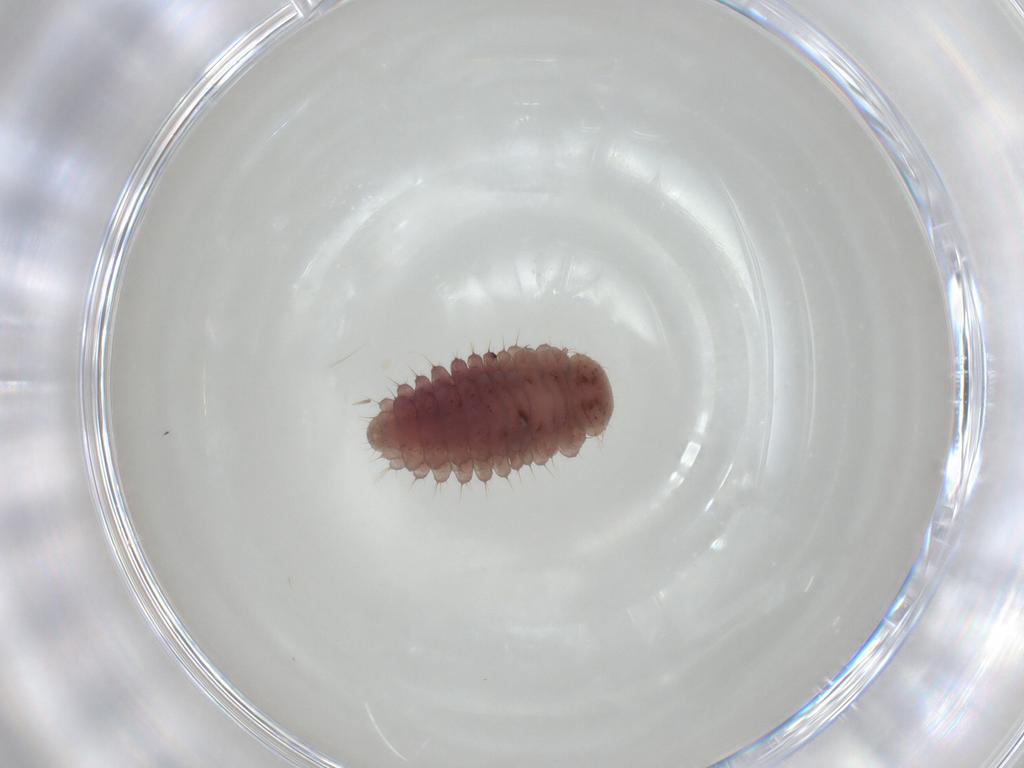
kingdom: Animalia
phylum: Arthropoda
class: Insecta
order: Coleoptera
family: Coccinellidae
